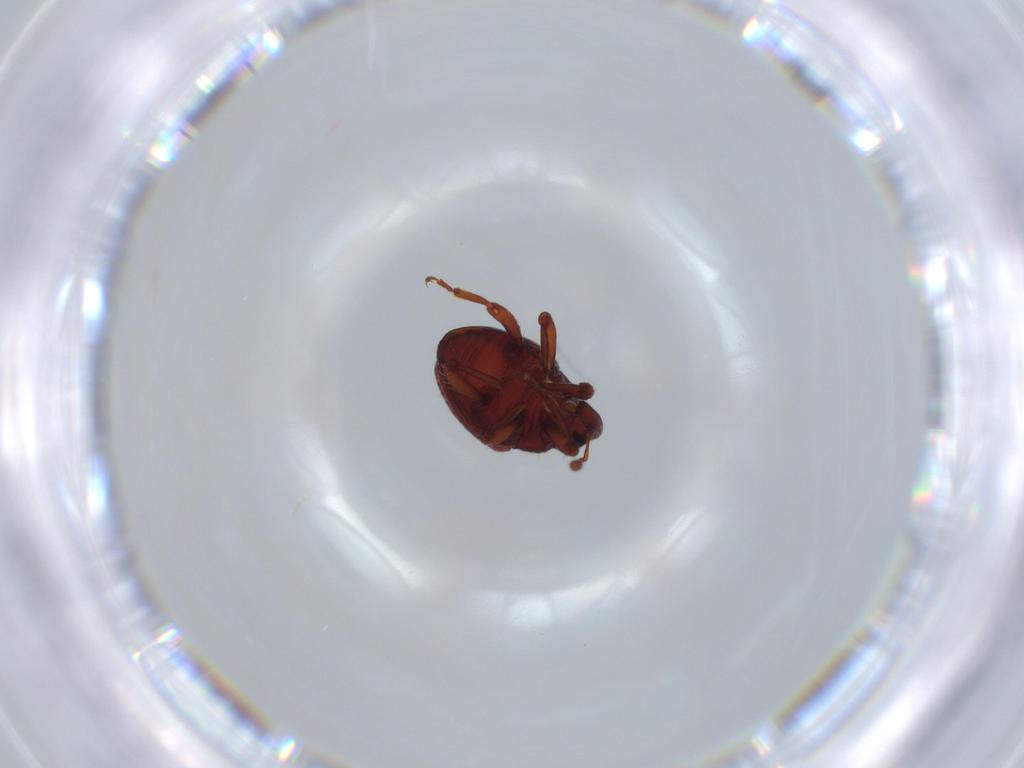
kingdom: Animalia
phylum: Arthropoda
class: Insecta
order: Coleoptera
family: Curculionidae
